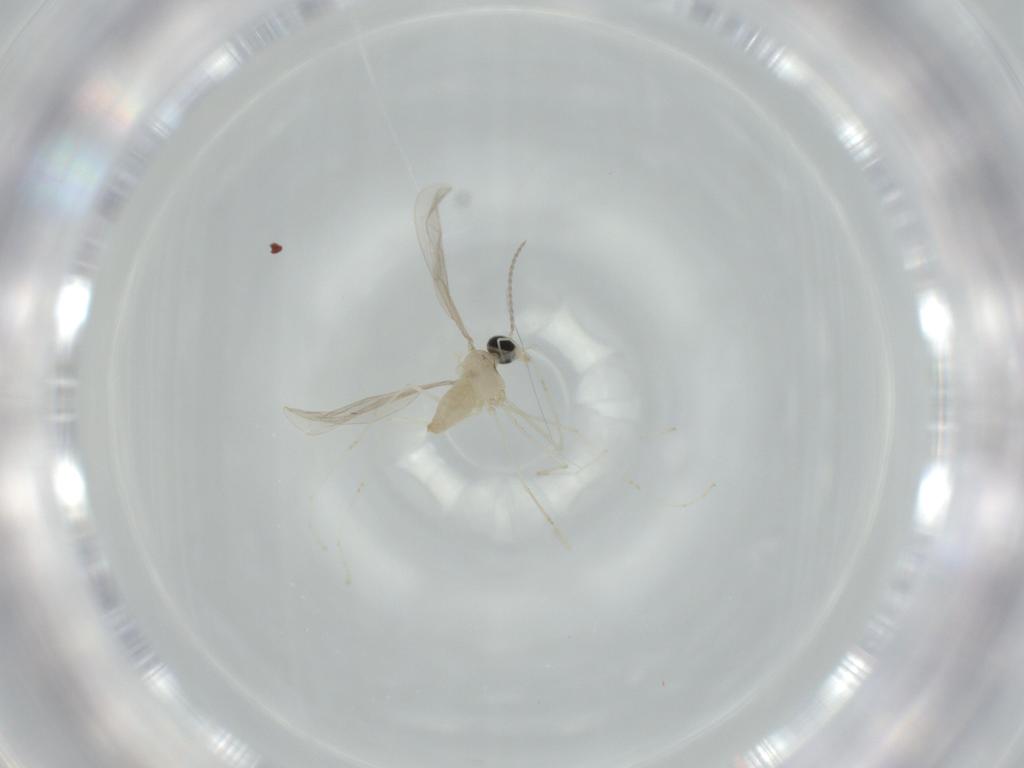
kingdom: Animalia
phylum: Arthropoda
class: Insecta
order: Diptera
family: Cecidomyiidae
